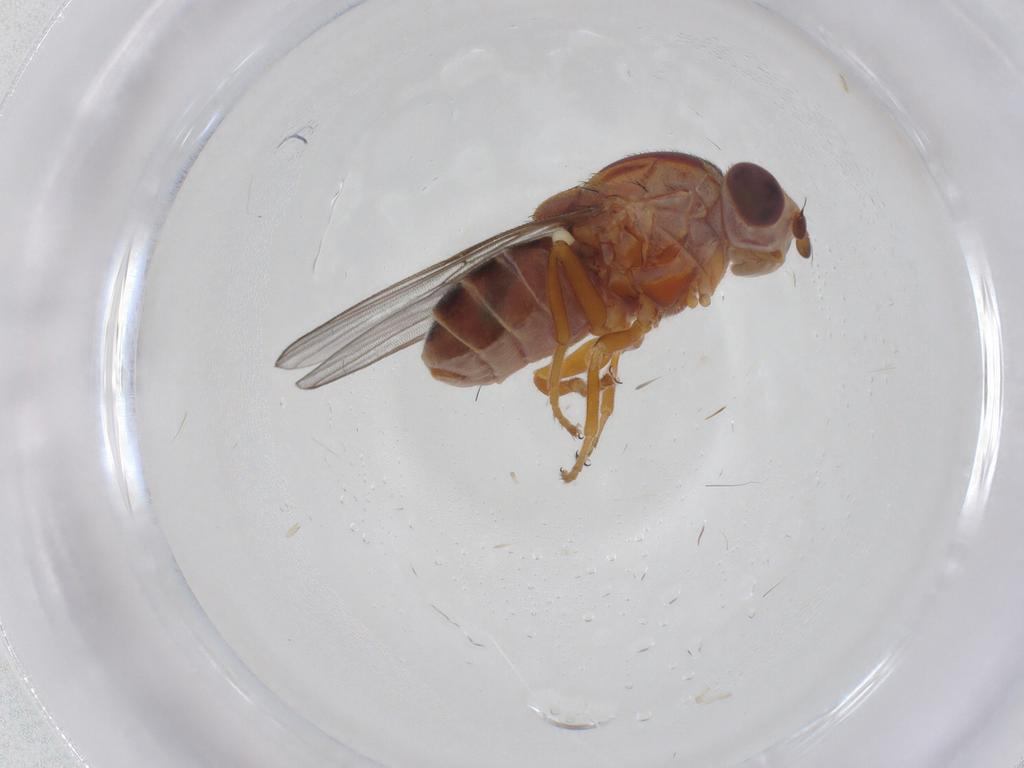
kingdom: Animalia
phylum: Arthropoda
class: Insecta
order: Diptera
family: Chloropidae
